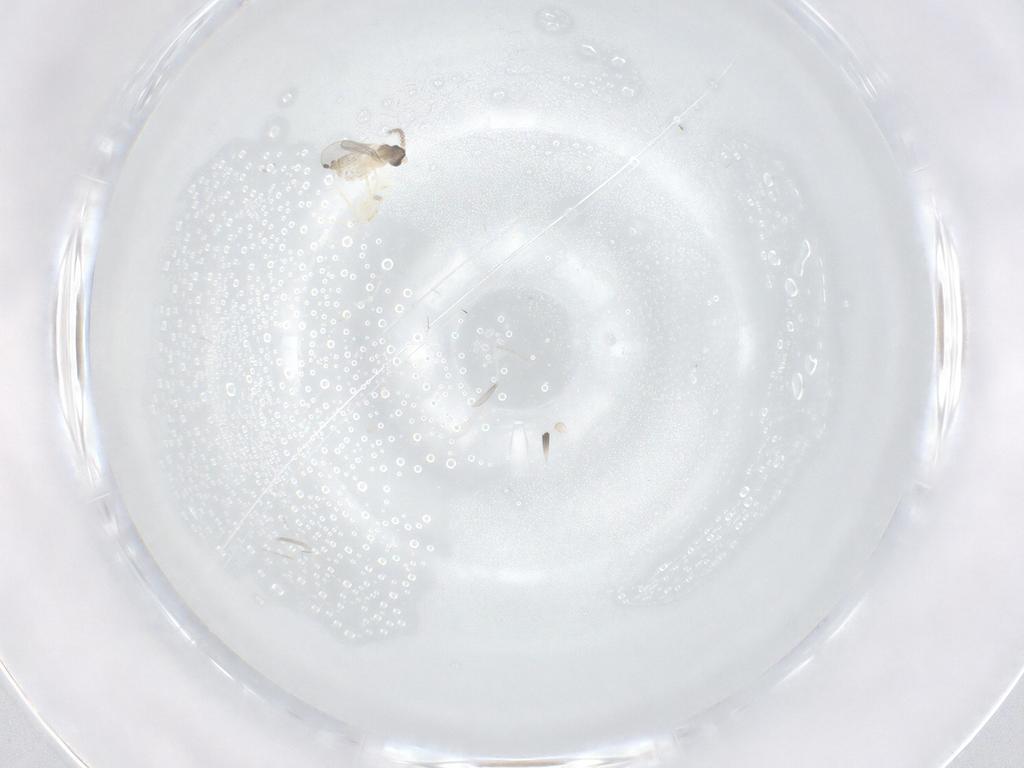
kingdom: Animalia
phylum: Arthropoda
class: Insecta
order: Diptera
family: Cecidomyiidae
